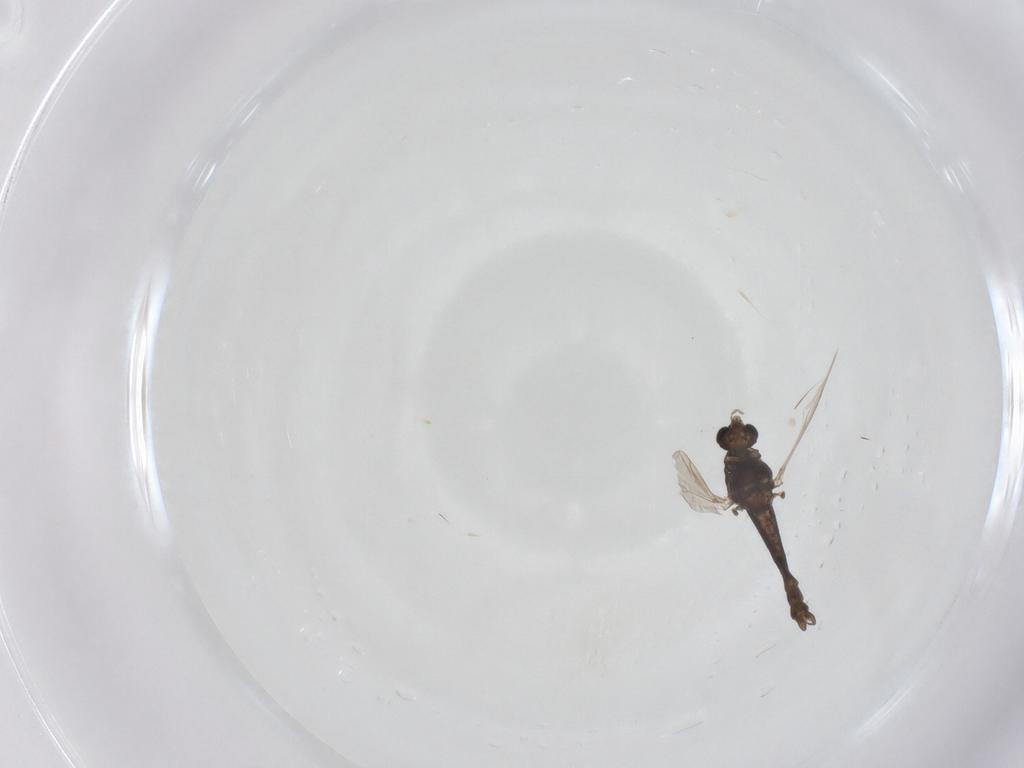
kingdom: Animalia
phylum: Arthropoda
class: Insecta
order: Diptera
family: Chironomidae
